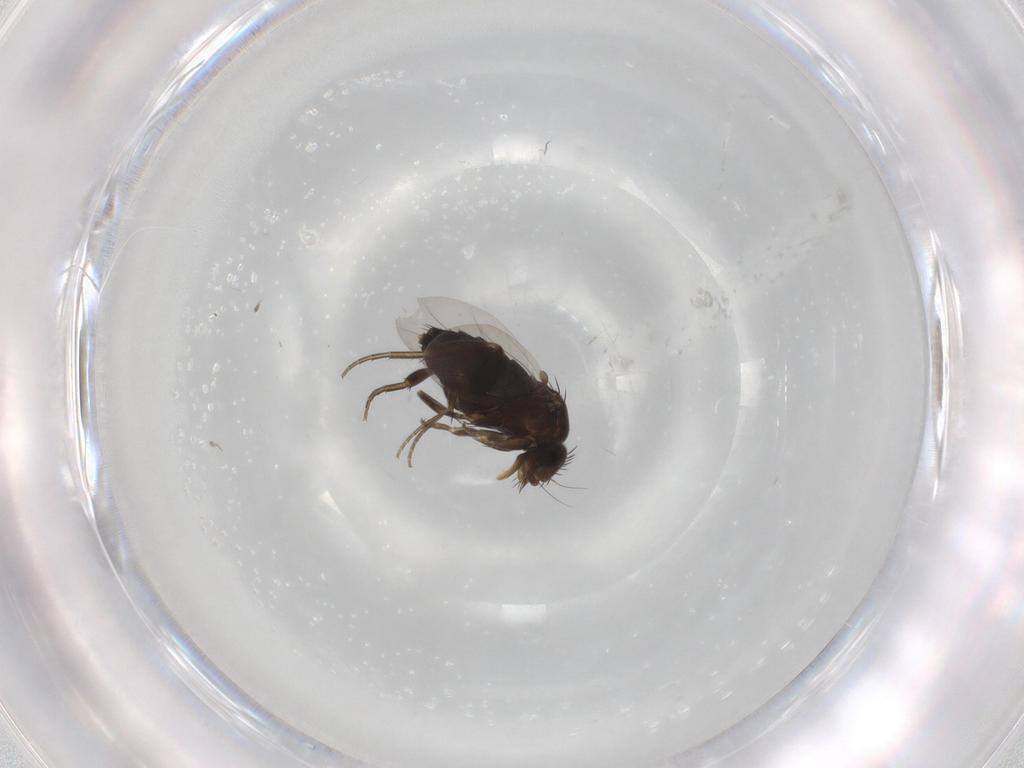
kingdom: Animalia
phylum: Arthropoda
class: Insecta
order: Diptera
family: Phoridae
